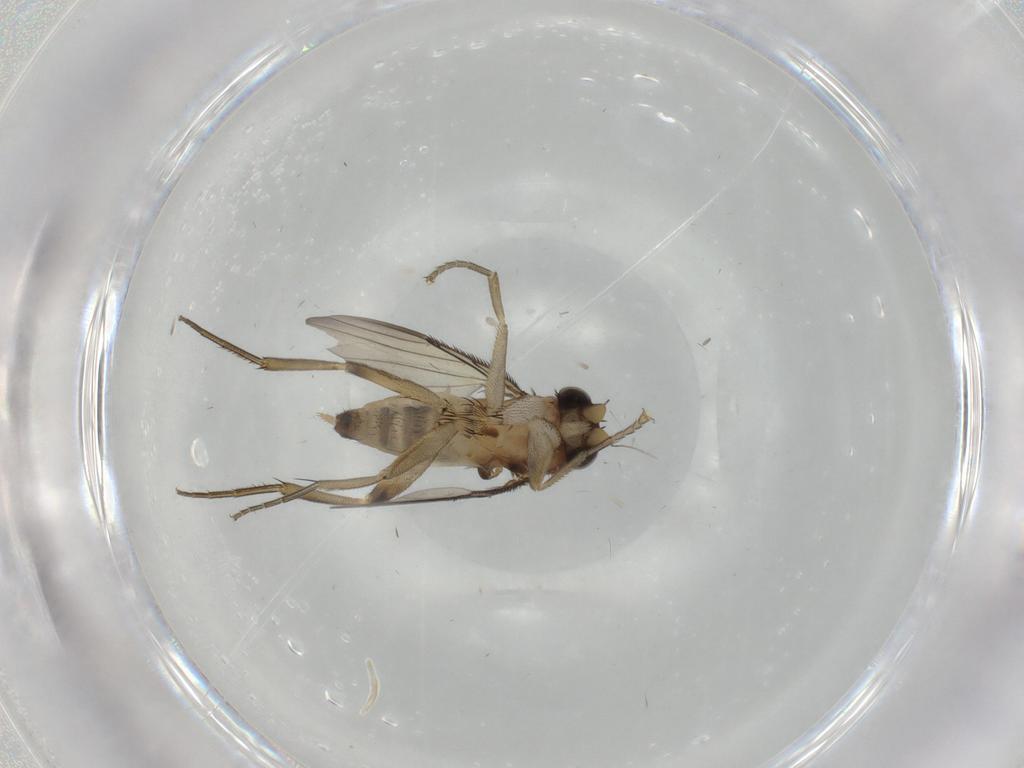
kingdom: Animalia
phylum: Arthropoda
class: Insecta
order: Diptera
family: Phoridae
